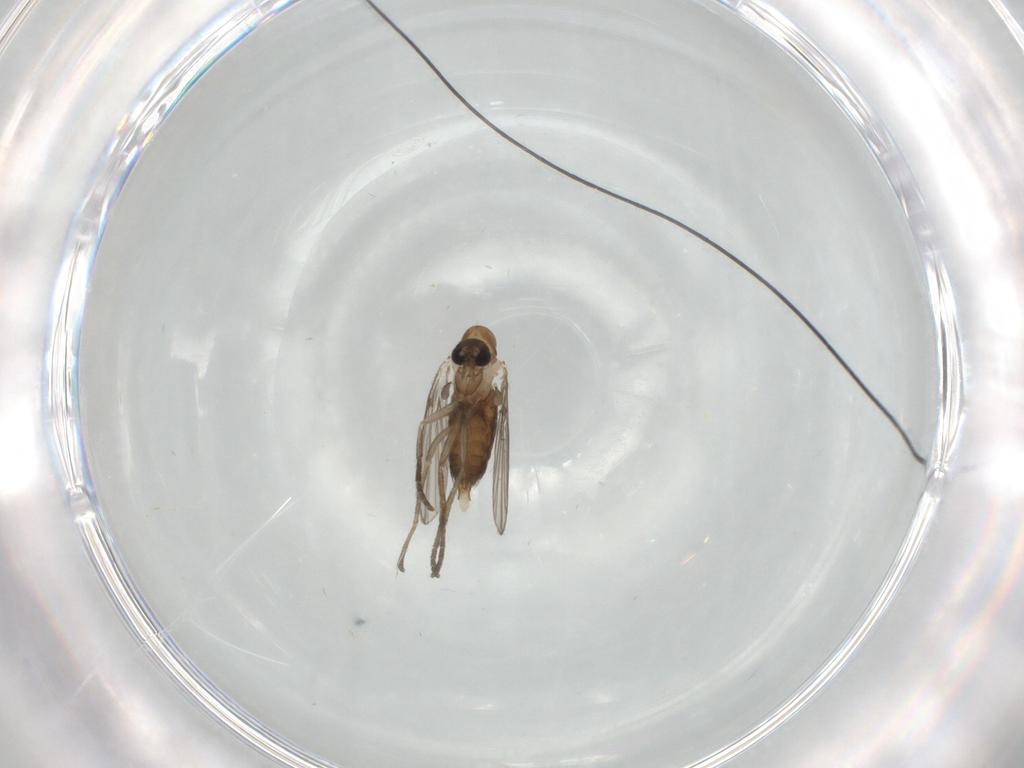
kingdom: Animalia
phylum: Arthropoda
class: Insecta
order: Diptera
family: Psychodidae
